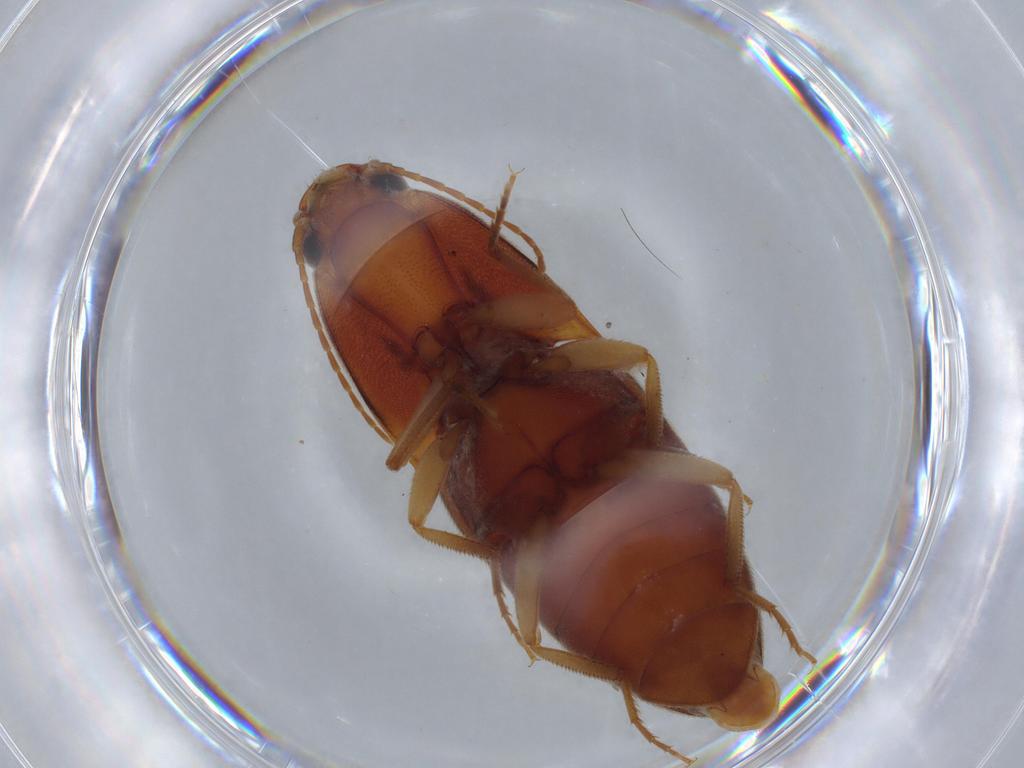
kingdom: Animalia
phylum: Arthropoda
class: Insecta
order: Coleoptera
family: Elateridae
